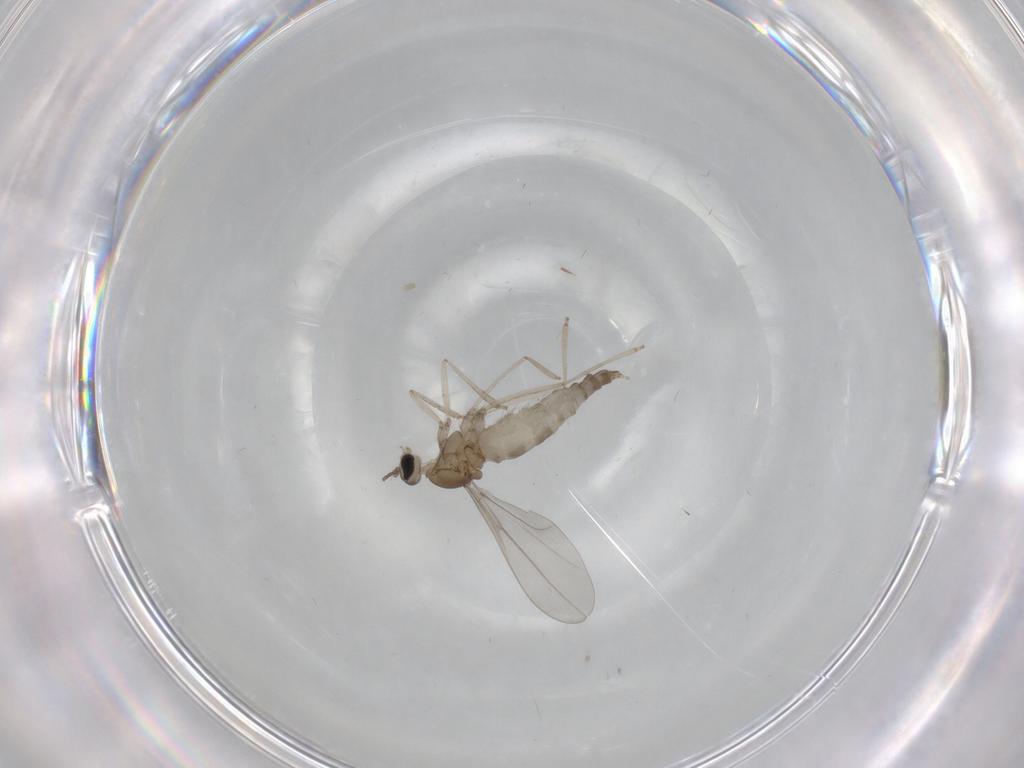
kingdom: Animalia
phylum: Arthropoda
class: Insecta
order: Diptera
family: Cecidomyiidae
